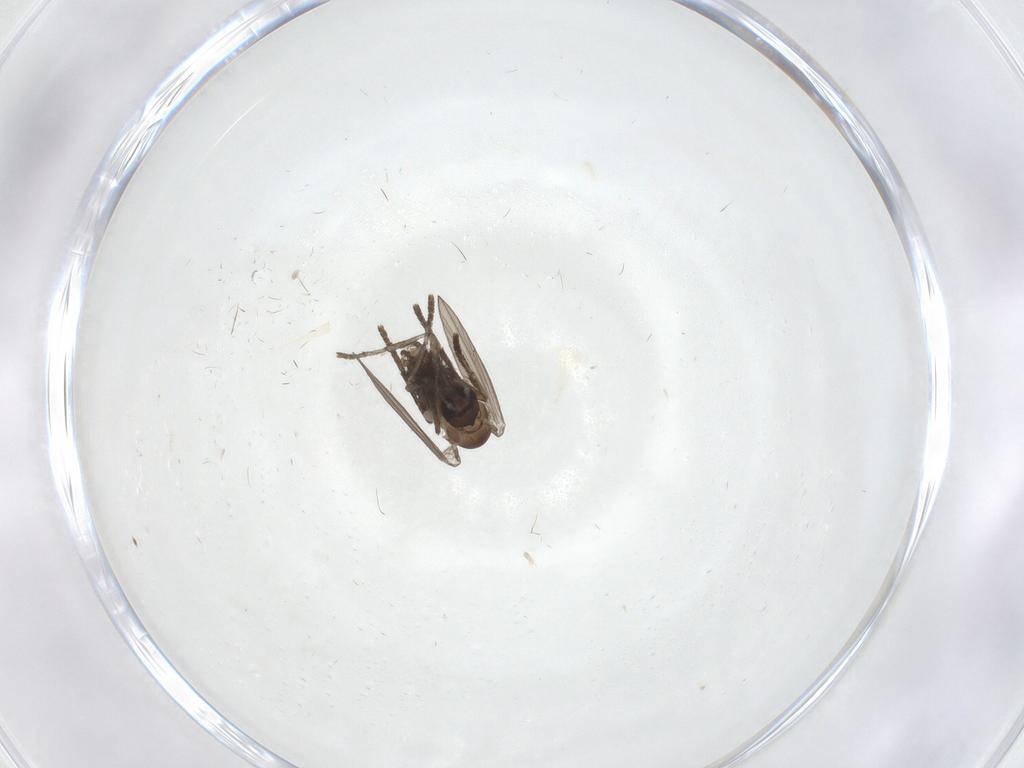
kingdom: Animalia
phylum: Arthropoda
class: Insecta
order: Diptera
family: Psychodidae
